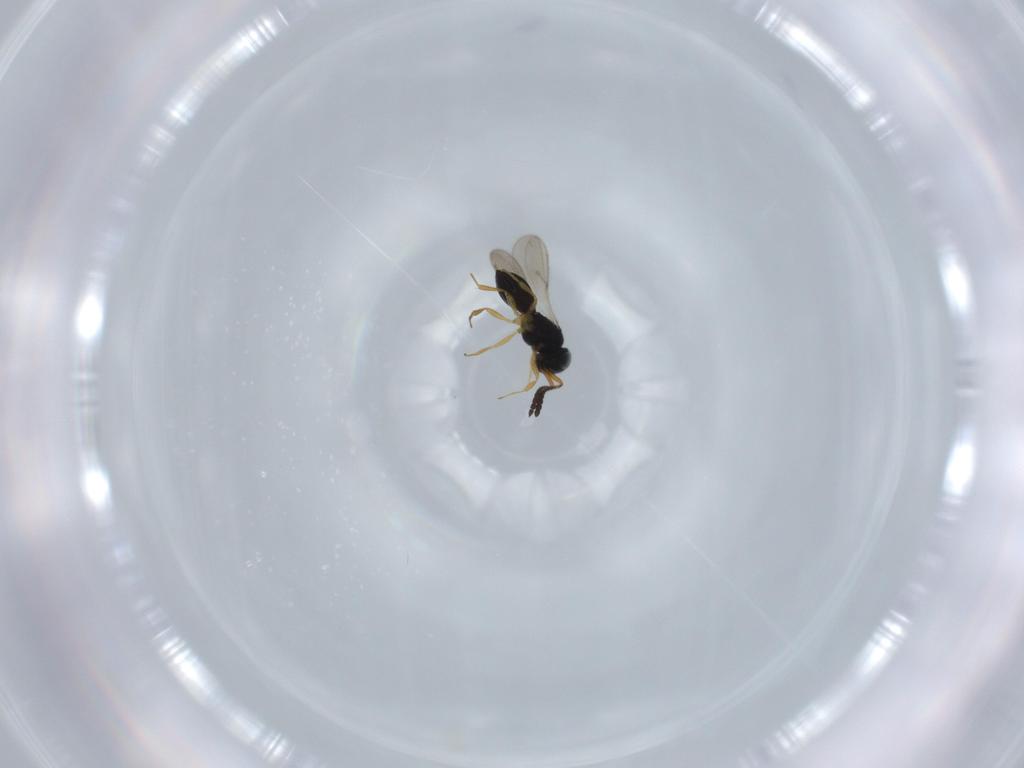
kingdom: Animalia
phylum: Arthropoda
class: Insecta
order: Hymenoptera
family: Scelionidae
